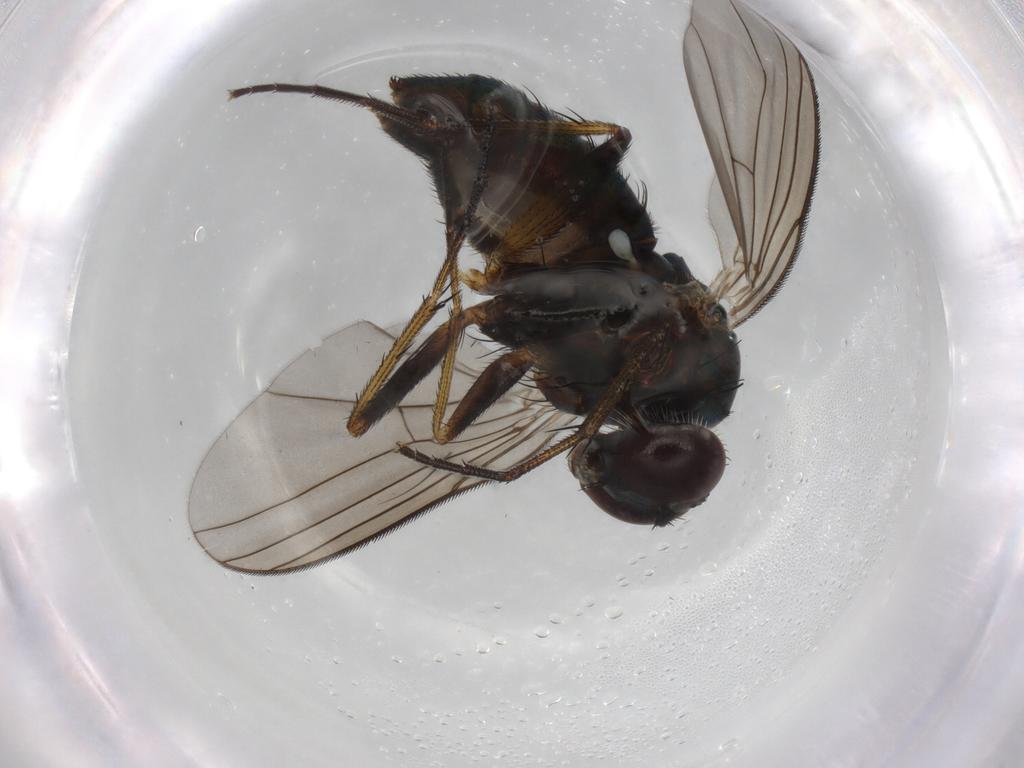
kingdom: Animalia
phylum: Arthropoda
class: Insecta
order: Diptera
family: Dolichopodidae
